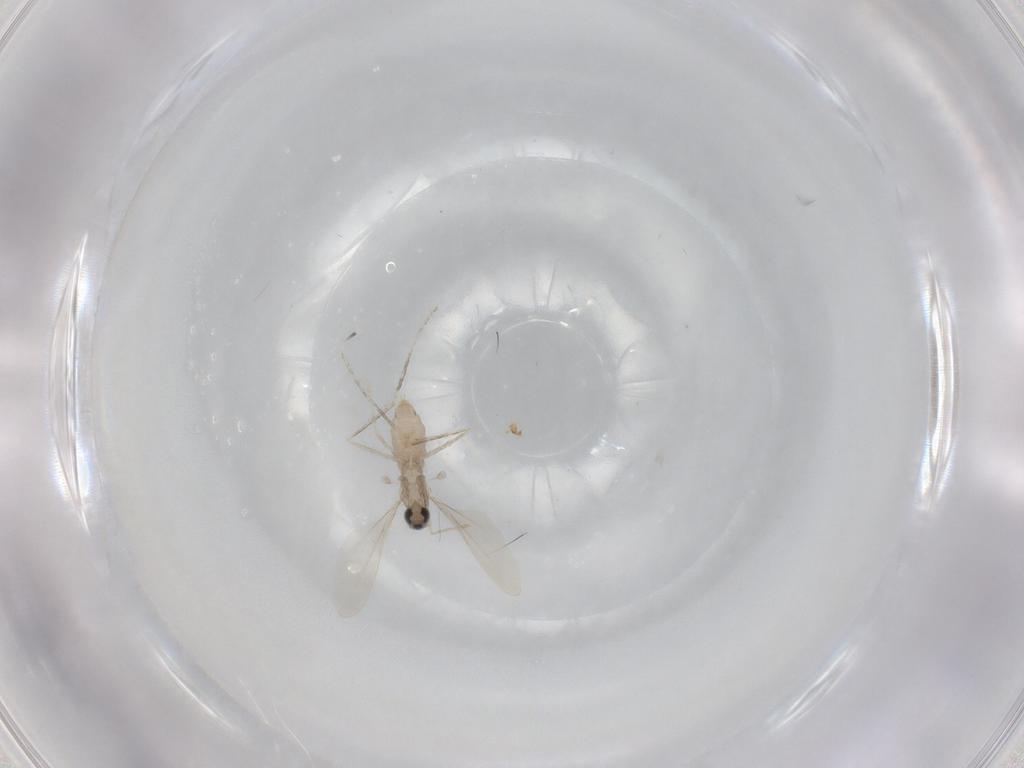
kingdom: Animalia
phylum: Arthropoda
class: Insecta
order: Diptera
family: Cecidomyiidae
